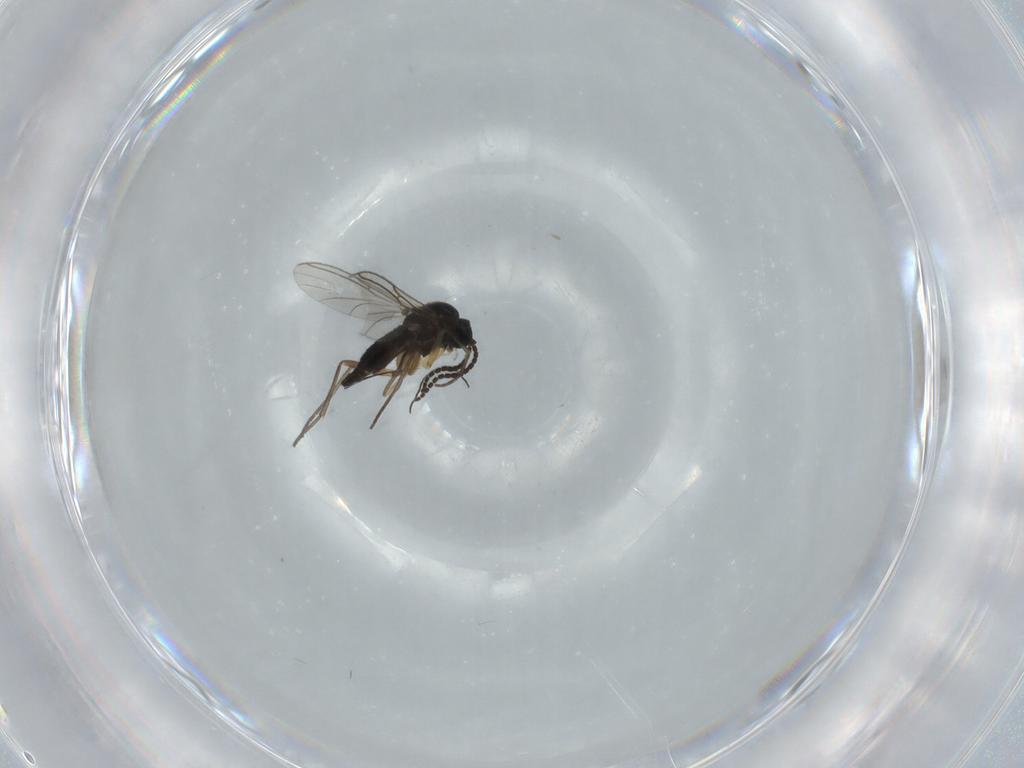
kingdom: Animalia
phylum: Arthropoda
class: Insecta
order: Diptera
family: Sciaridae
